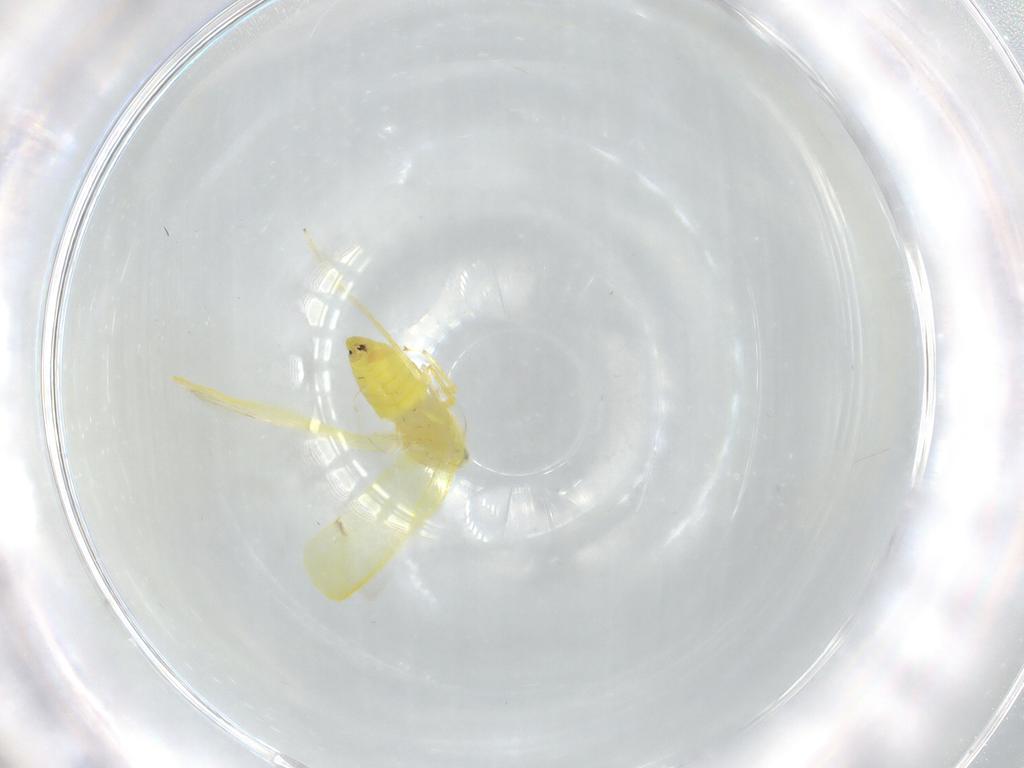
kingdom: Animalia
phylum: Arthropoda
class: Insecta
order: Hemiptera
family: Cicadellidae
